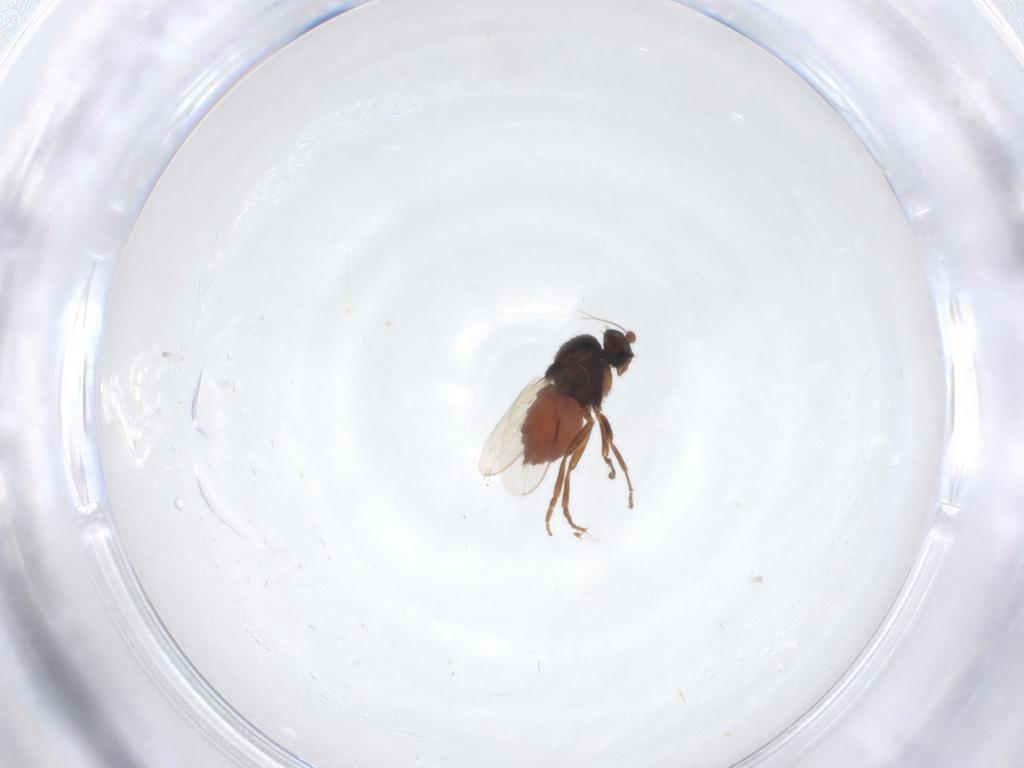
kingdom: Animalia
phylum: Arthropoda
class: Insecta
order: Diptera
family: Sphaeroceridae
